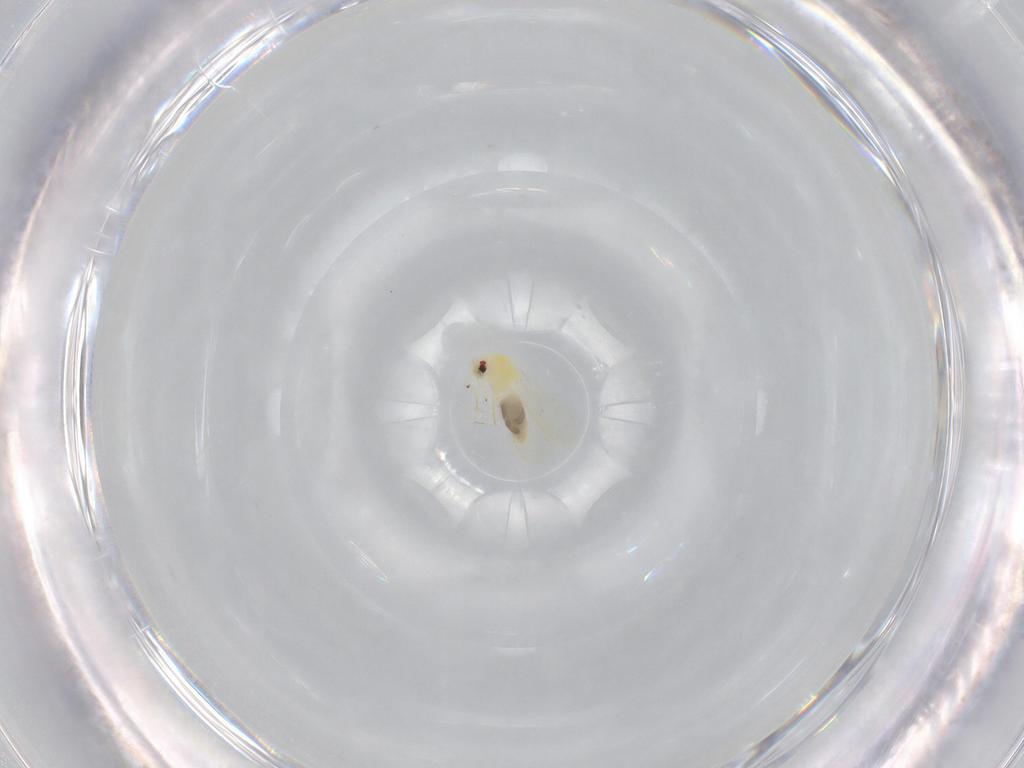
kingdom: Animalia
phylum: Arthropoda
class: Insecta
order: Hemiptera
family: Aleyrodidae
